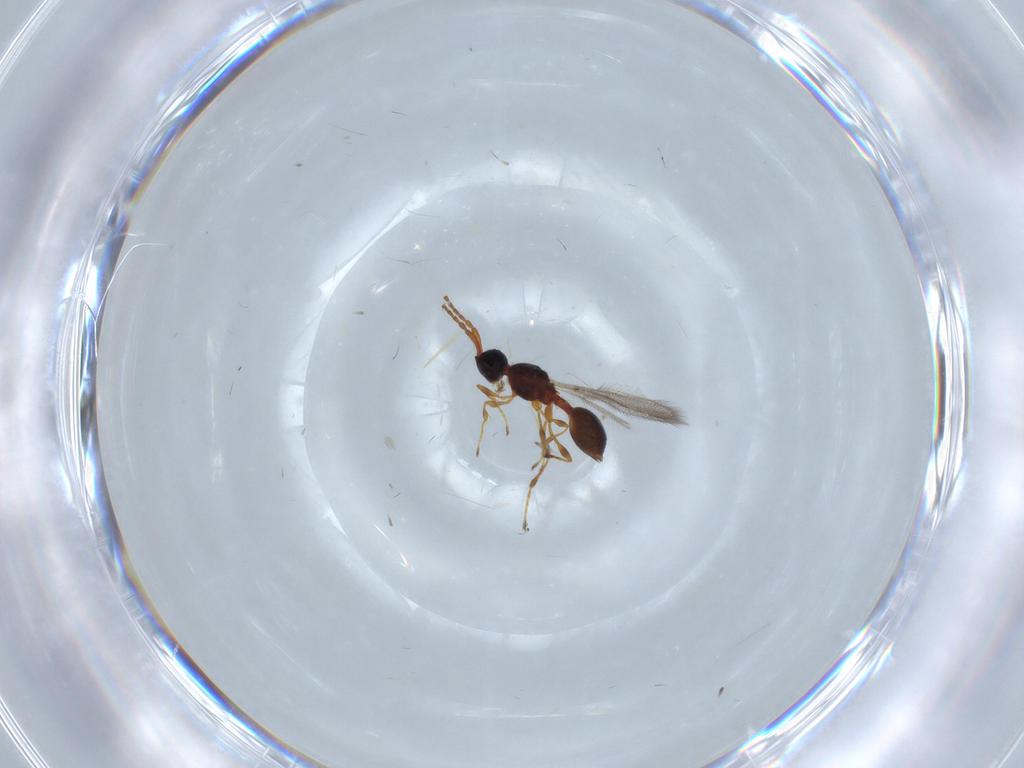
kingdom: Animalia
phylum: Arthropoda
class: Insecta
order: Hymenoptera
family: Diapriidae
